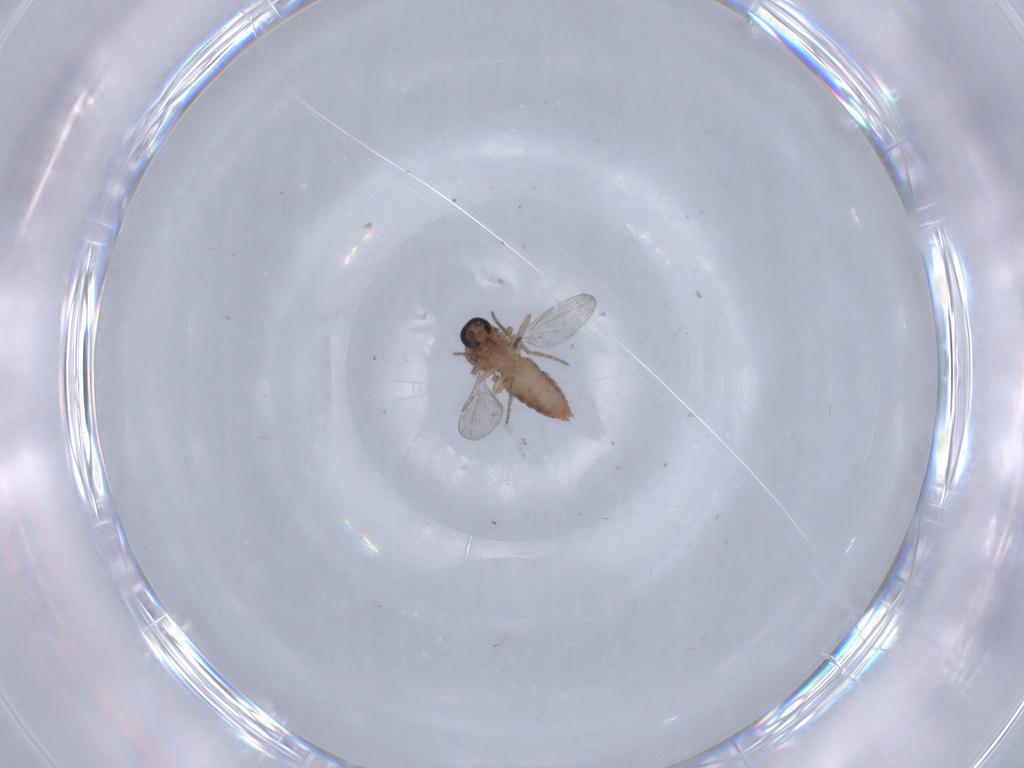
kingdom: Animalia
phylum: Arthropoda
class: Insecta
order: Diptera
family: Ceratopogonidae
